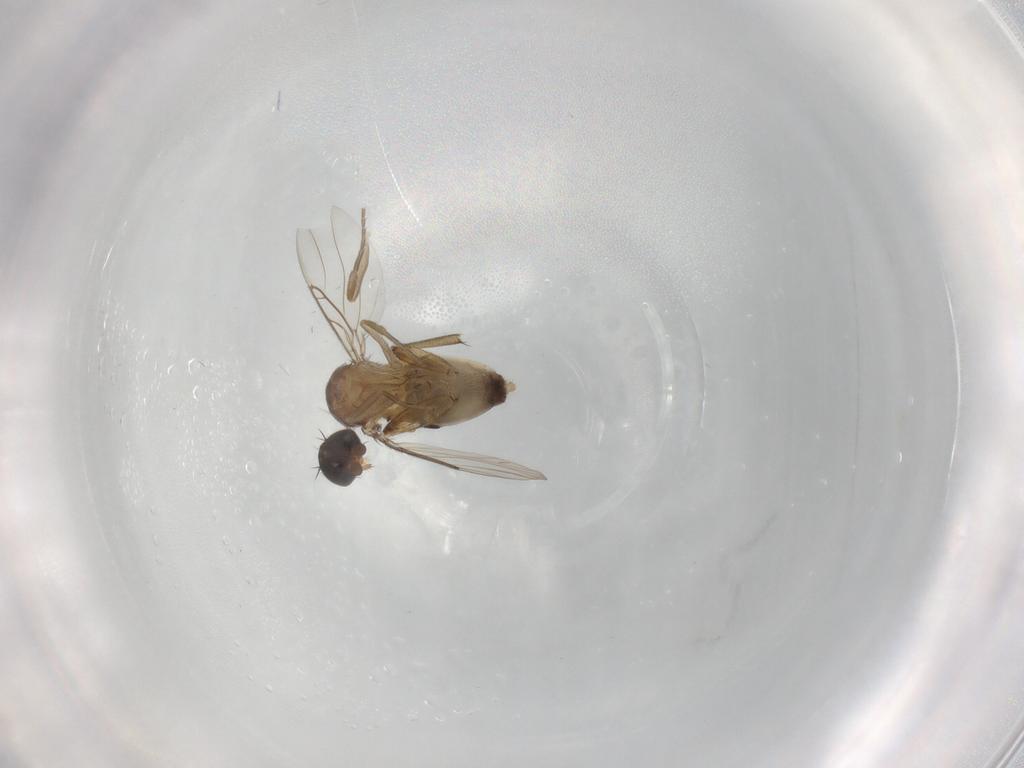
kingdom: Animalia
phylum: Arthropoda
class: Insecta
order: Diptera
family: Phoridae
